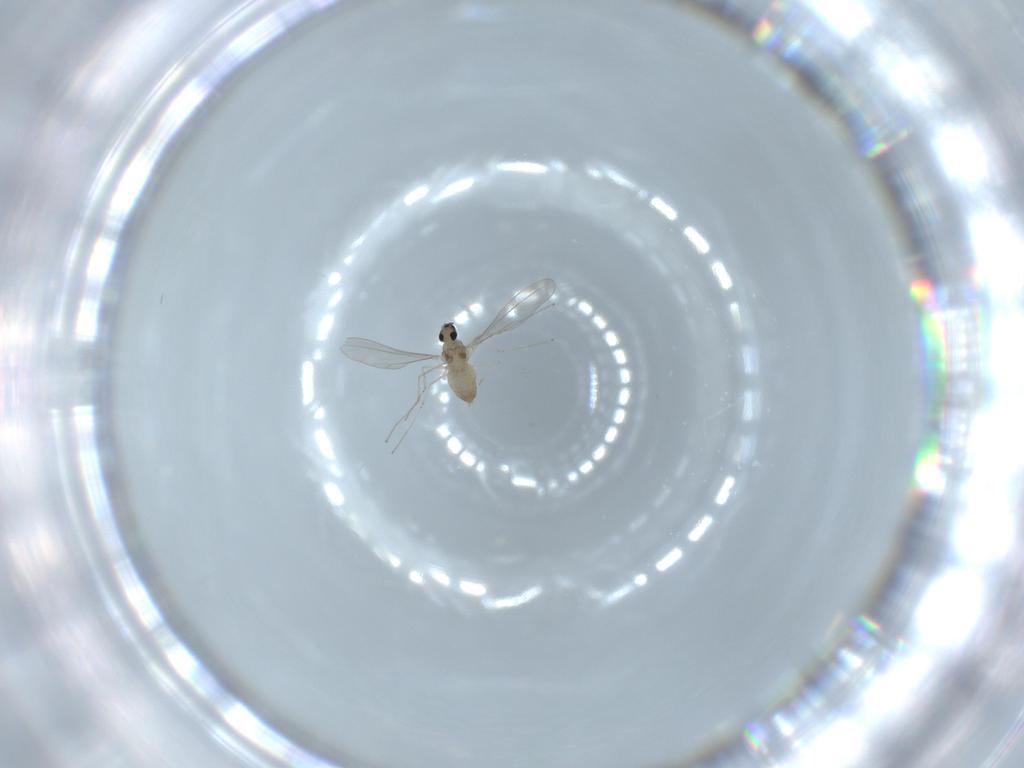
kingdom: Animalia
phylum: Arthropoda
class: Insecta
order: Diptera
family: Cecidomyiidae
